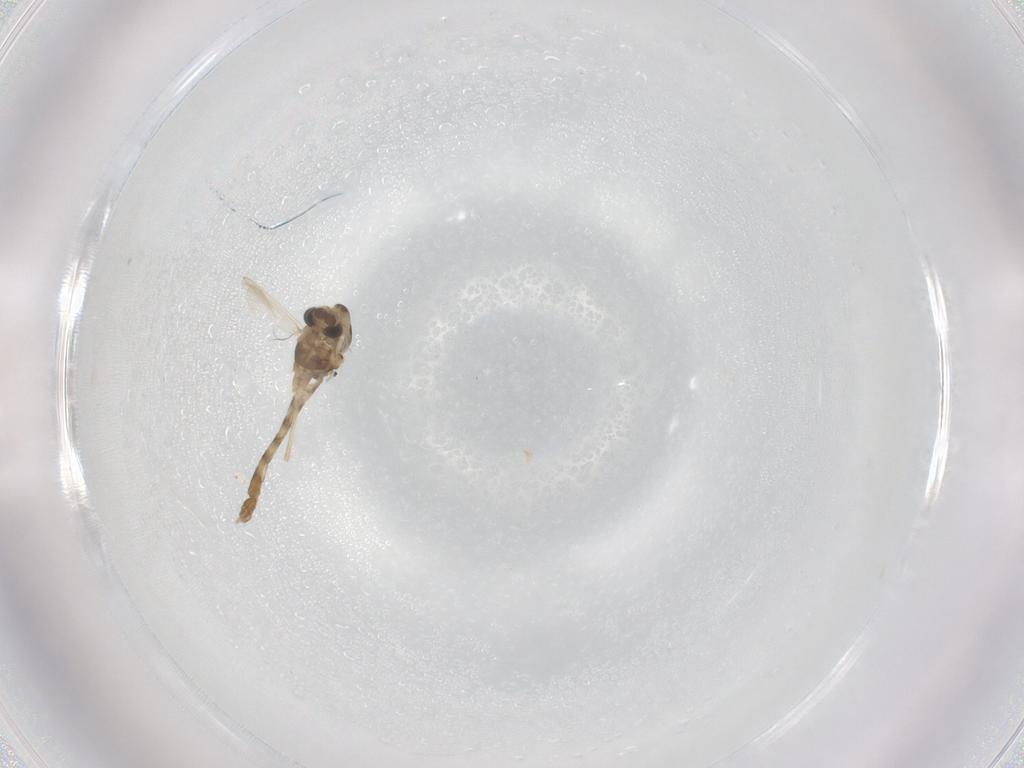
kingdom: Animalia
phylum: Arthropoda
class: Insecta
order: Diptera
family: Chironomidae
